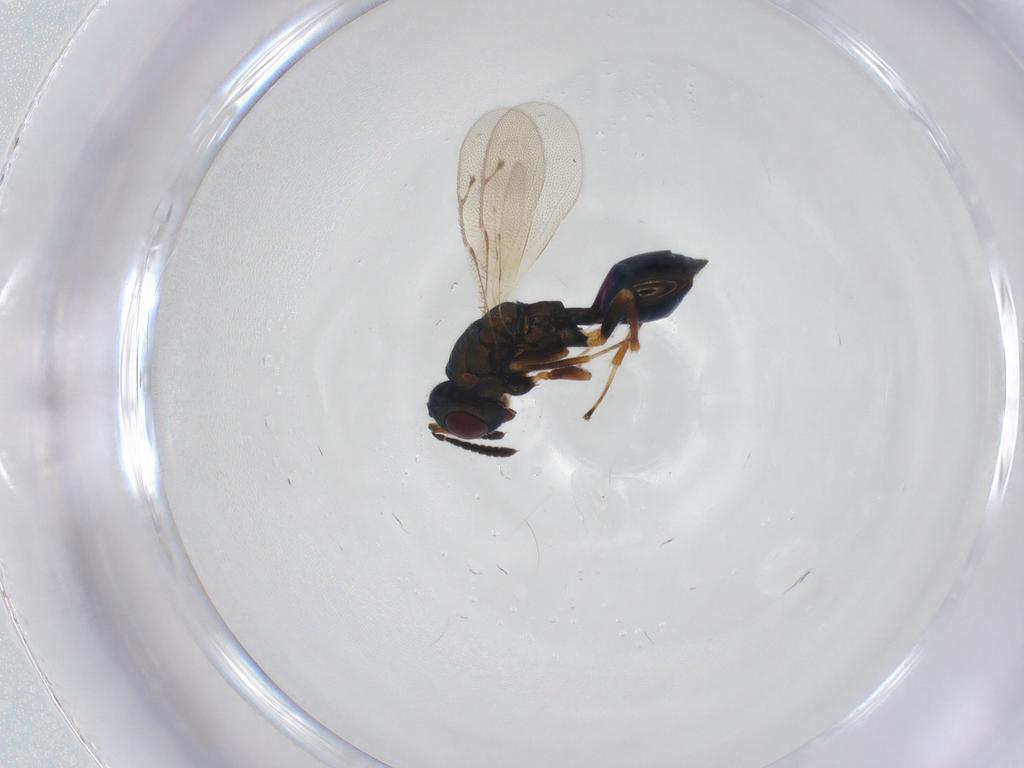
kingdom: Animalia
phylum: Arthropoda
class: Insecta
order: Hymenoptera
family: Pteromalidae
